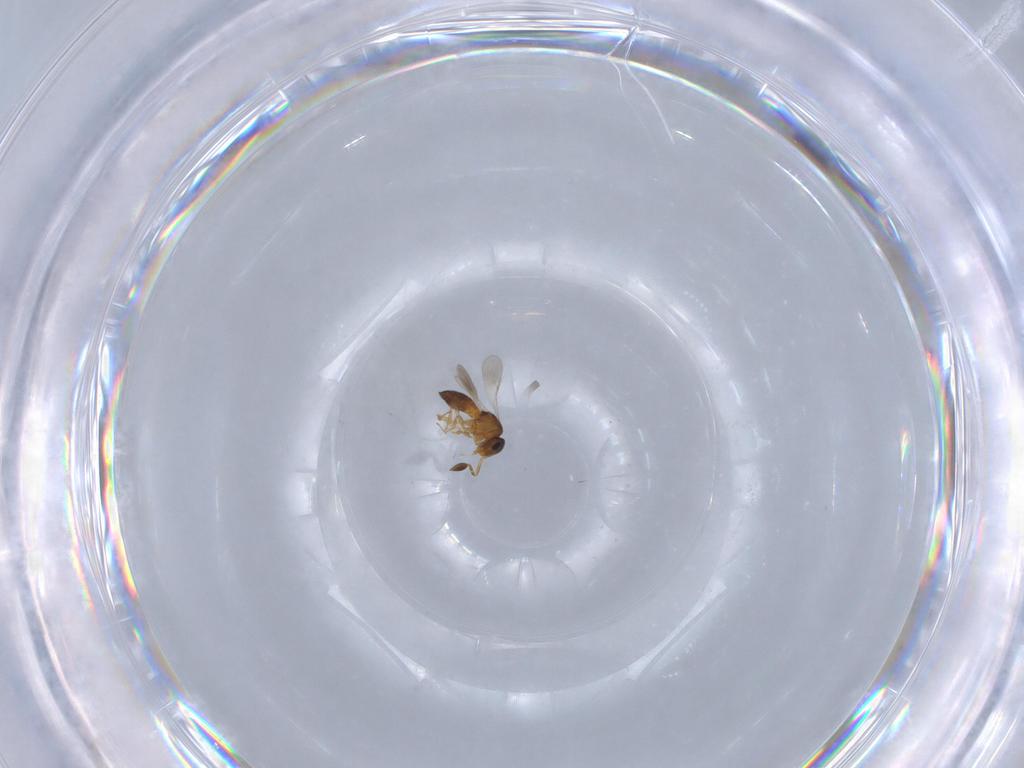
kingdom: Animalia
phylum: Arthropoda
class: Insecta
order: Hymenoptera
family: Scelionidae
